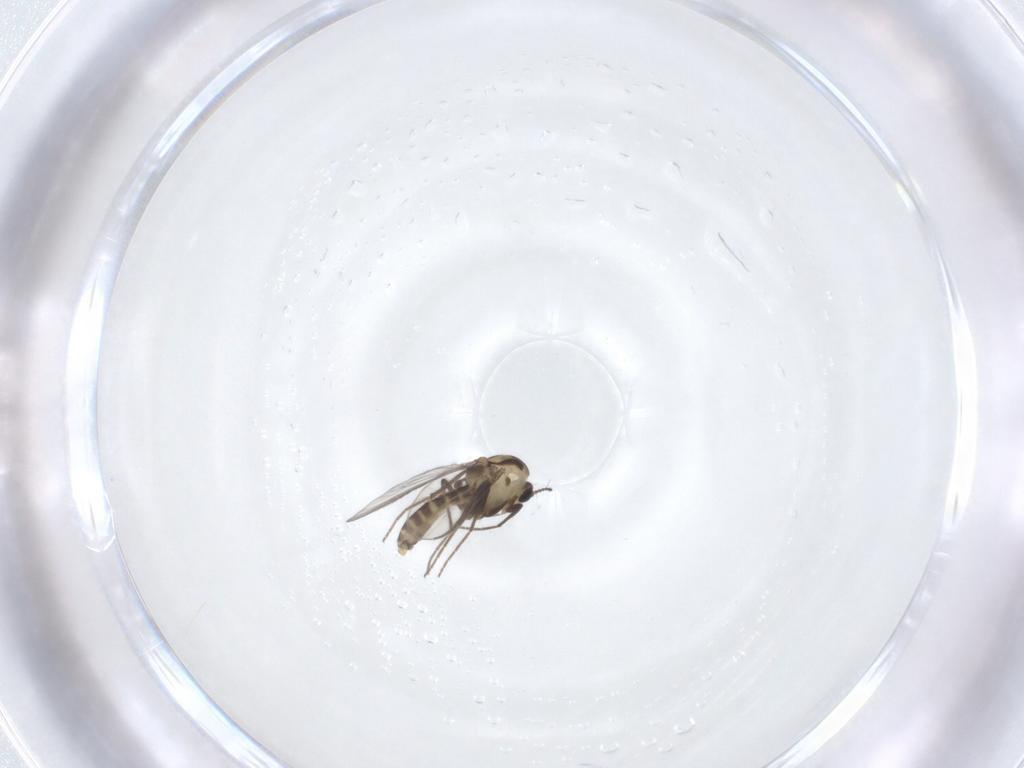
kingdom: Animalia
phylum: Arthropoda
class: Insecta
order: Diptera
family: Chironomidae
